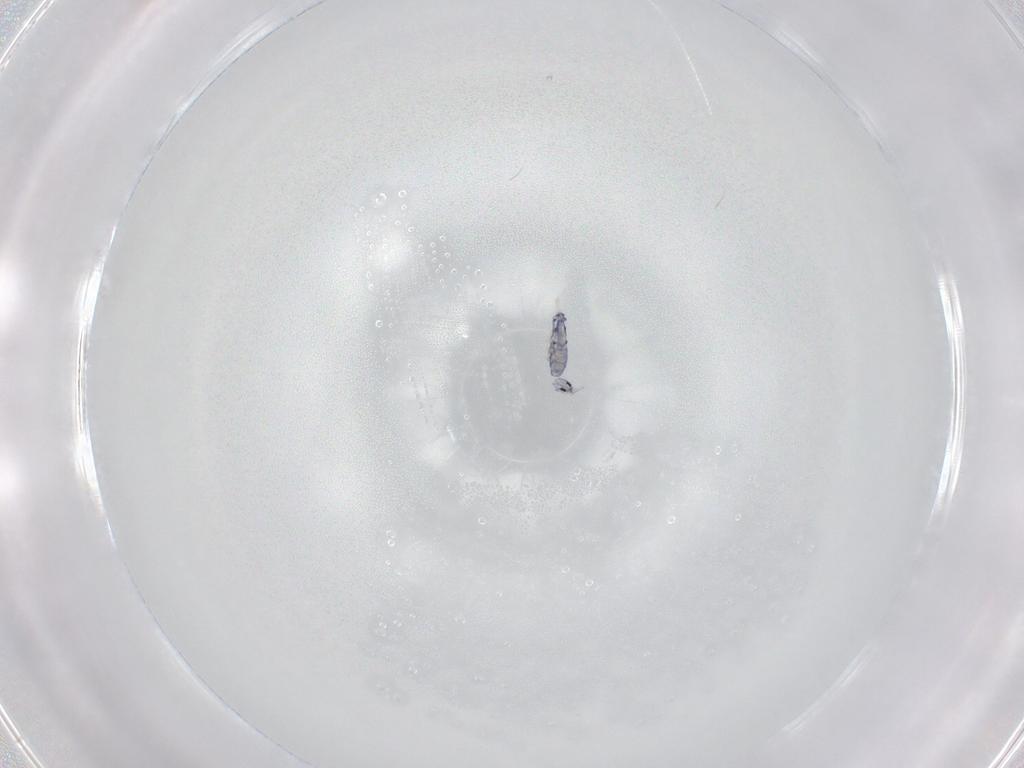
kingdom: Animalia
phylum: Arthropoda
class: Collembola
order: Entomobryomorpha
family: Entomobryidae
